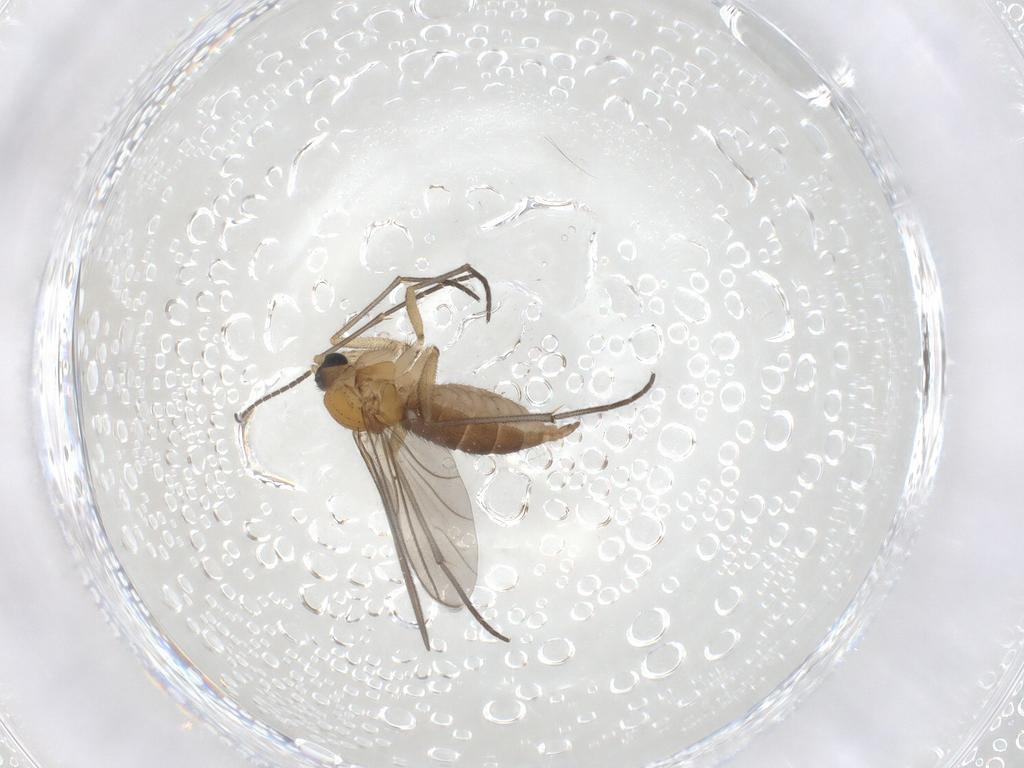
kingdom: Animalia
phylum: Arthropoda
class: Insecta
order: Diptera
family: Sciaridae
